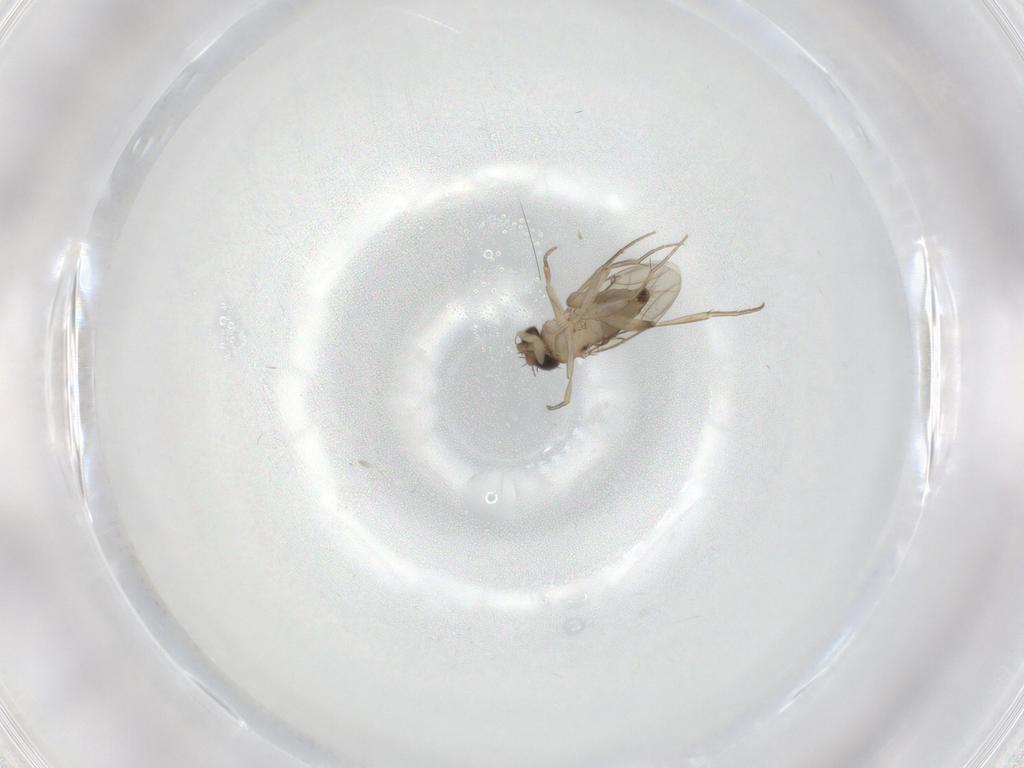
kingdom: Animalia
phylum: Arthropoda
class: Insecta
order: Diptera
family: Phoridae
